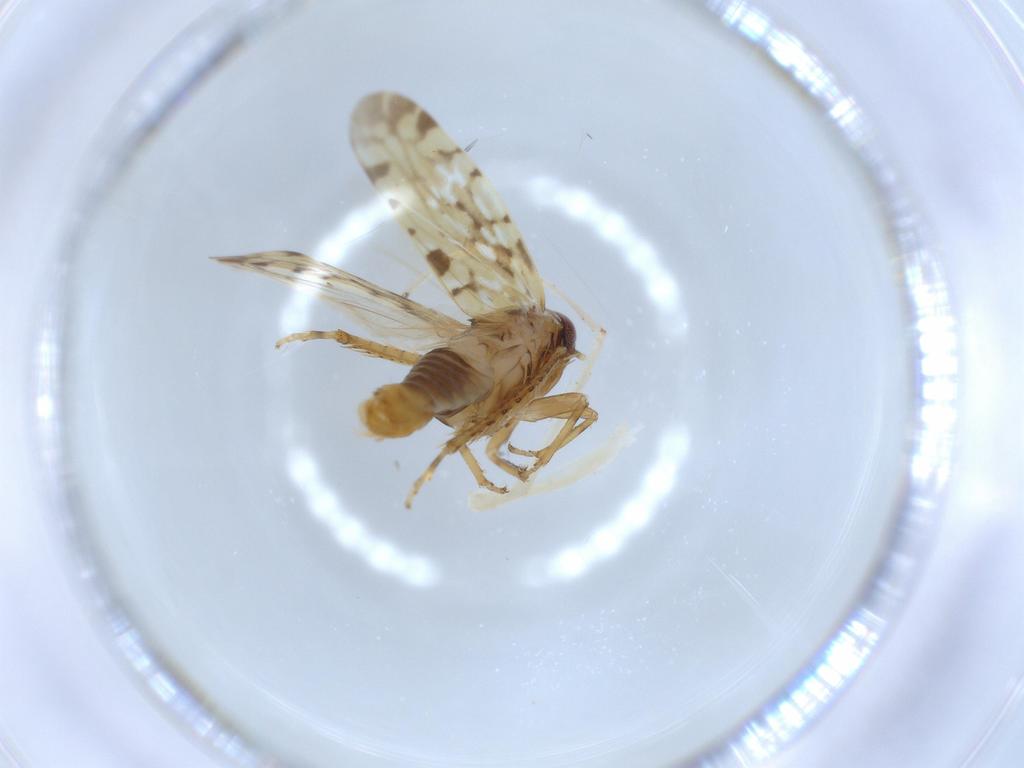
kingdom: Animalia
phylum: Arthropoda
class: Insecta
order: Hemiptera
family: Cicadellidae
